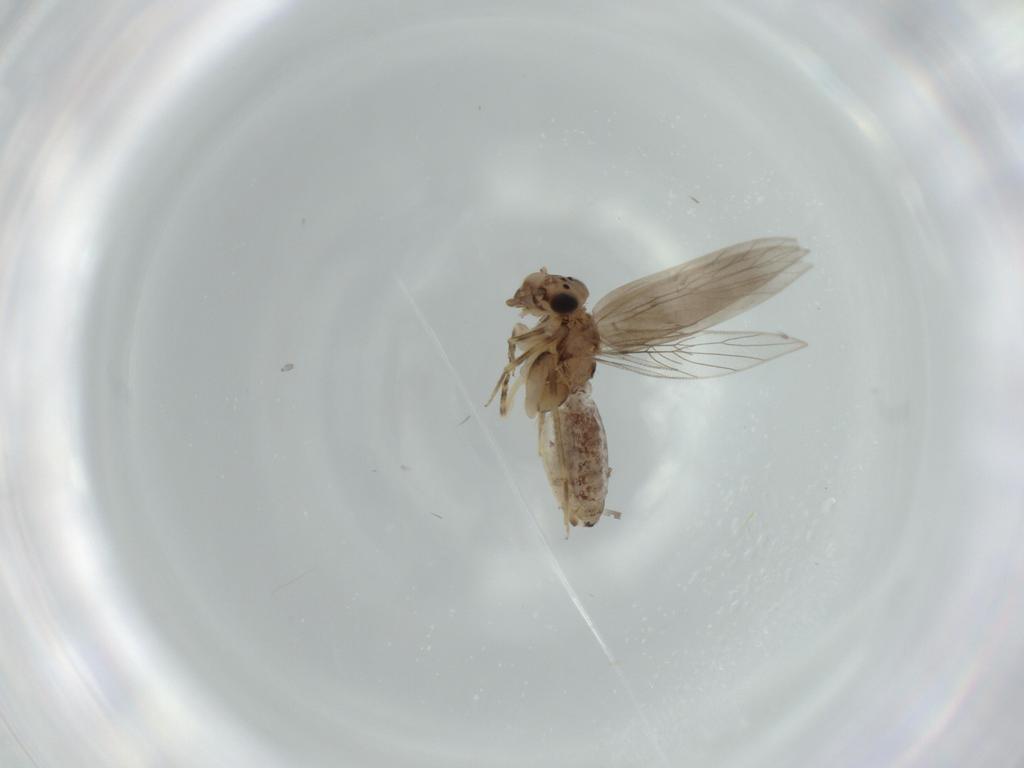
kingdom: Animalia
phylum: Arthropoda
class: Insecta
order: Psocodea
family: Lepidopsocidae
